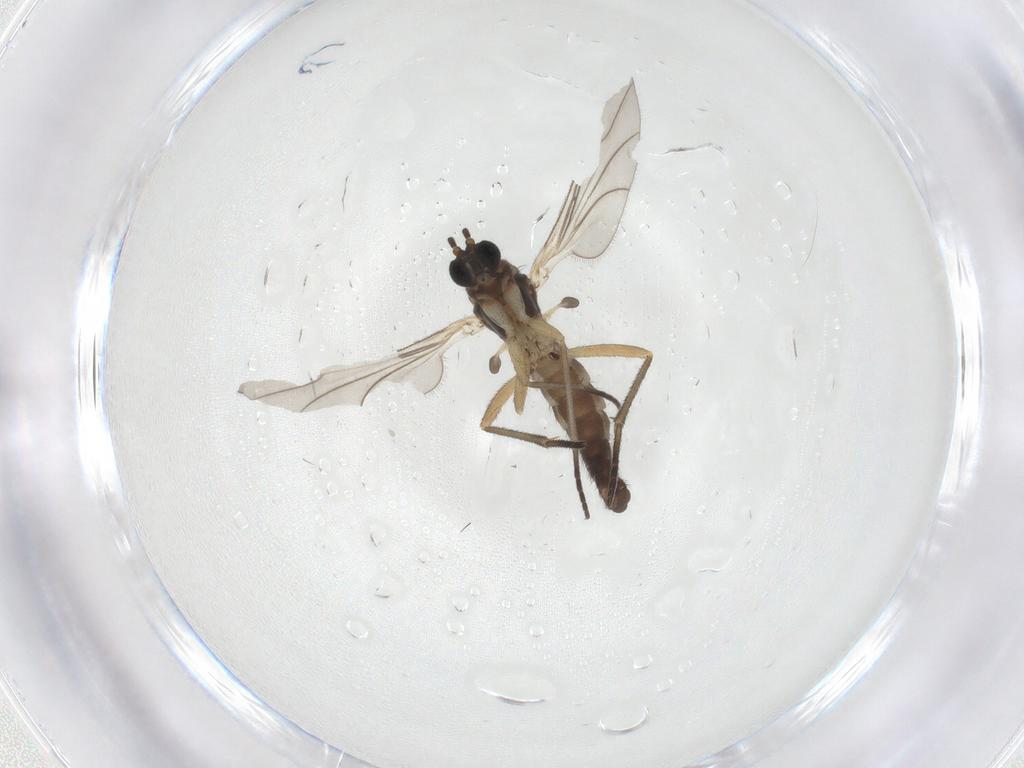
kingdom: Animalia
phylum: Arthropoda
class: Insecta
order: Diptera
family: Sciaridae
